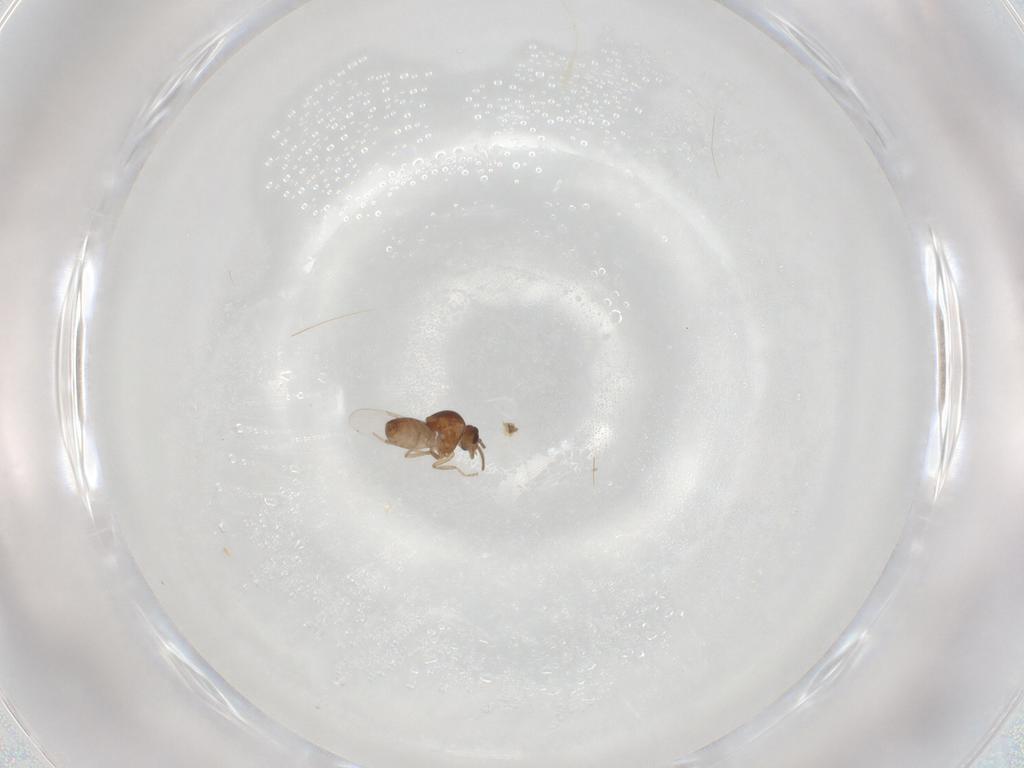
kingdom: Animalia
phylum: Arthropoda
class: Insecta
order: Diptera
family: Ceratopogonidae
